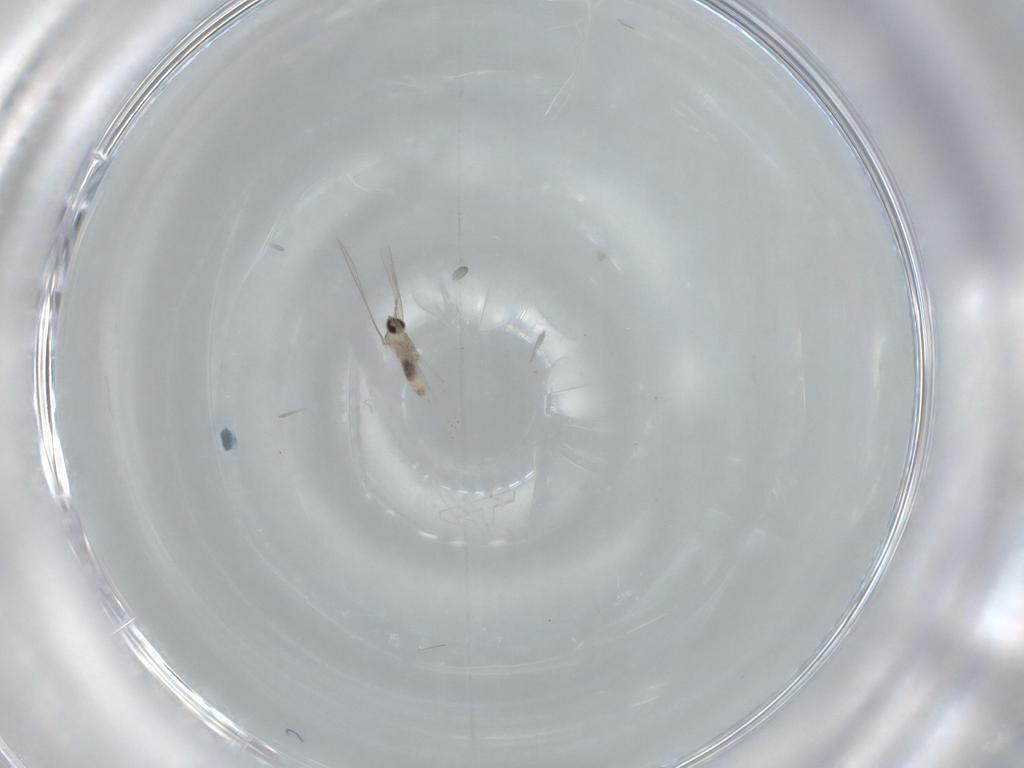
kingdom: Animalia
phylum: Arthropoda
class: Insecta
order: Diptera
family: Cecidomyiidae
